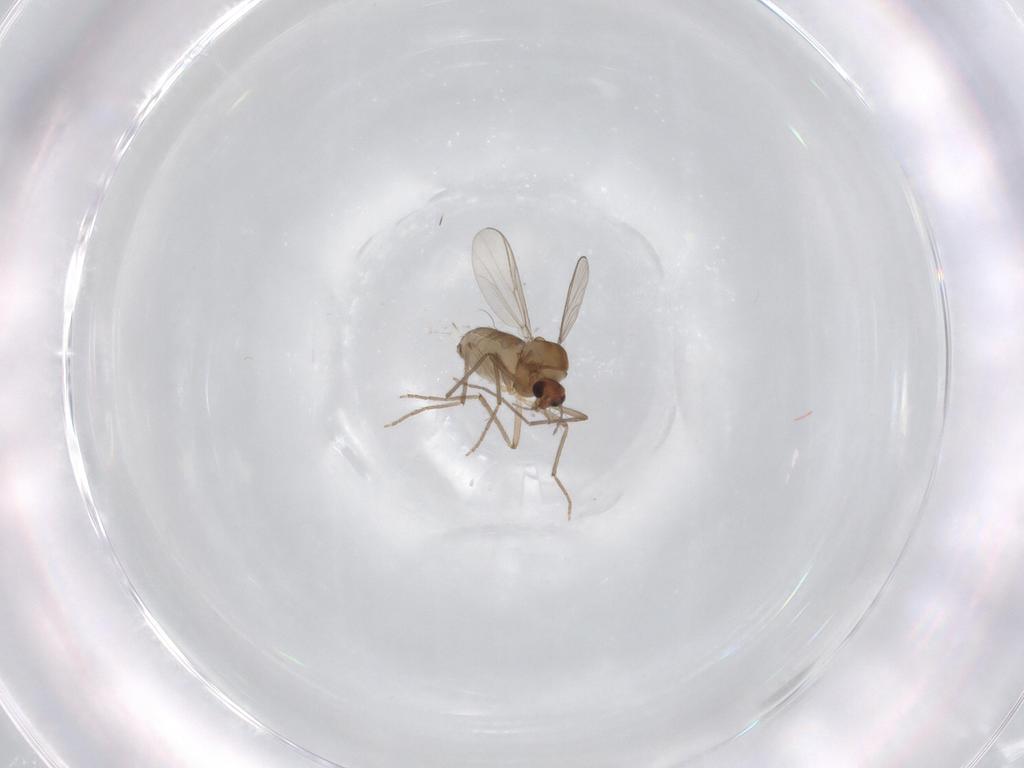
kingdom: Animalia
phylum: Arthropoda
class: Insecta
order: Diptera
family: Chironomidae
